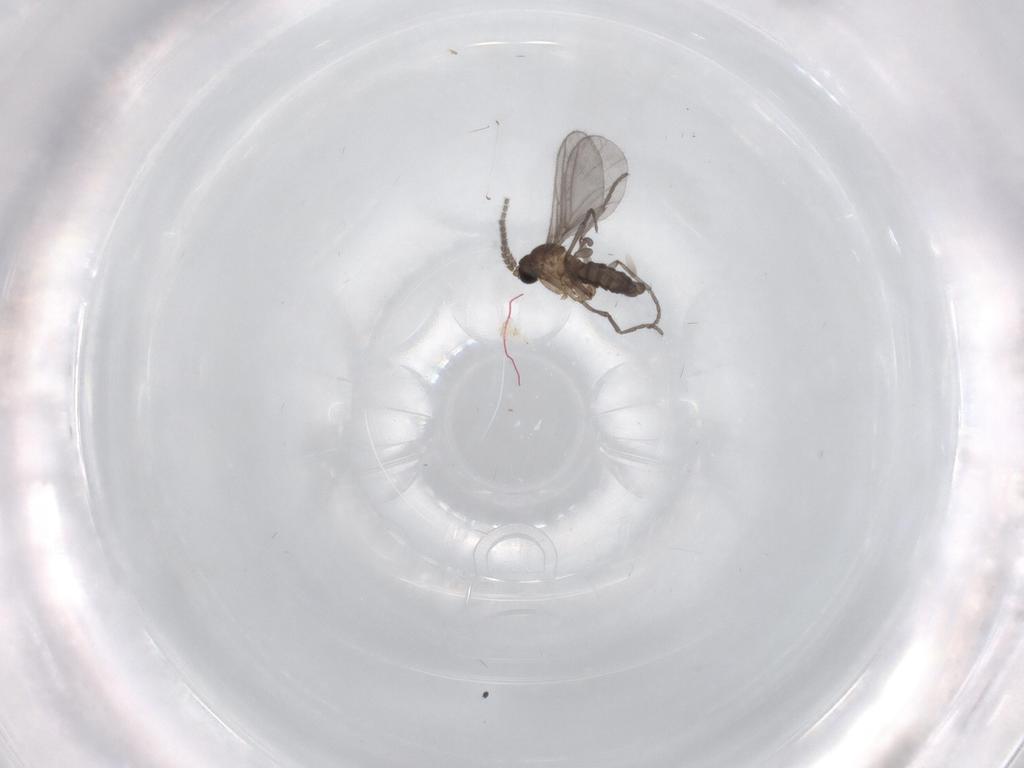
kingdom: Animalia
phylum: Arthropoda
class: Insecta
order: Diptera
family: Sciaridae
